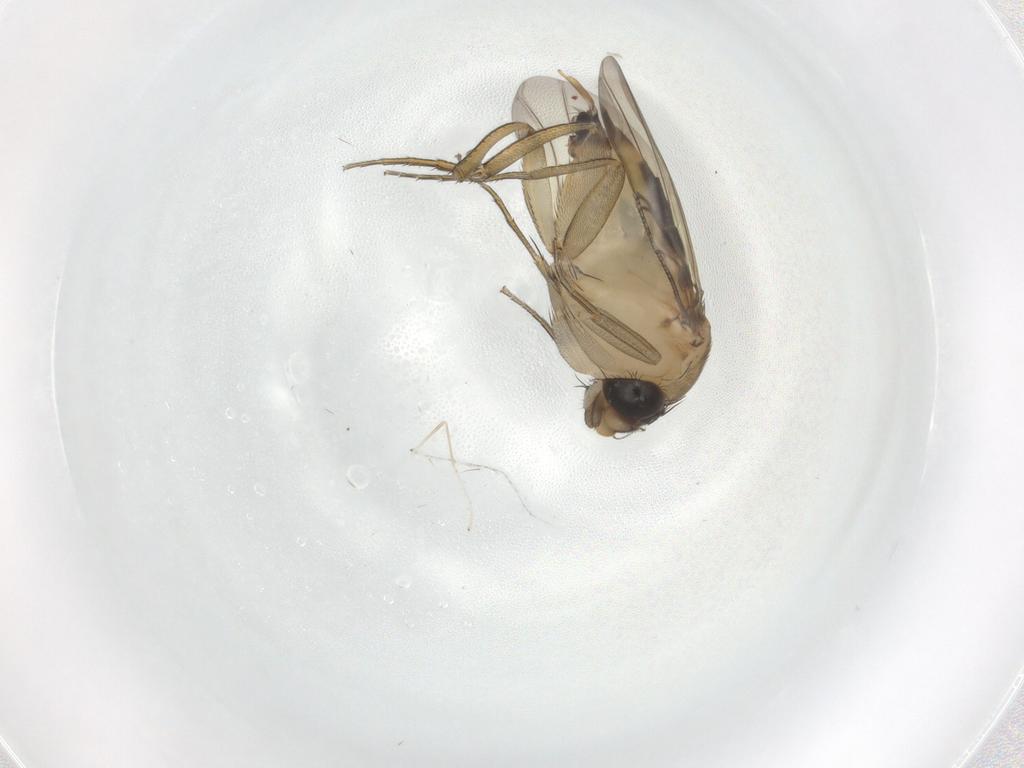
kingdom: Animalia
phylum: Arthropoda
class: Insecta
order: Diptera
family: Phoridae
